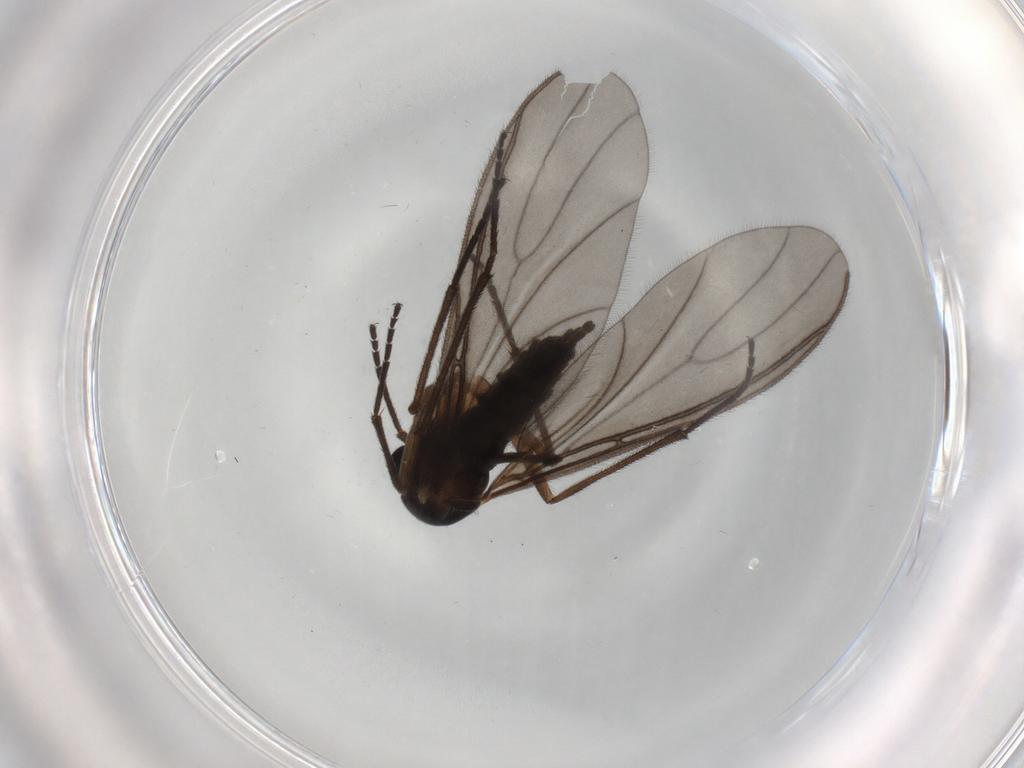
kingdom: Animalia
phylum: Arthropoda
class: Insecta
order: Diptera
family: Sciaridae
